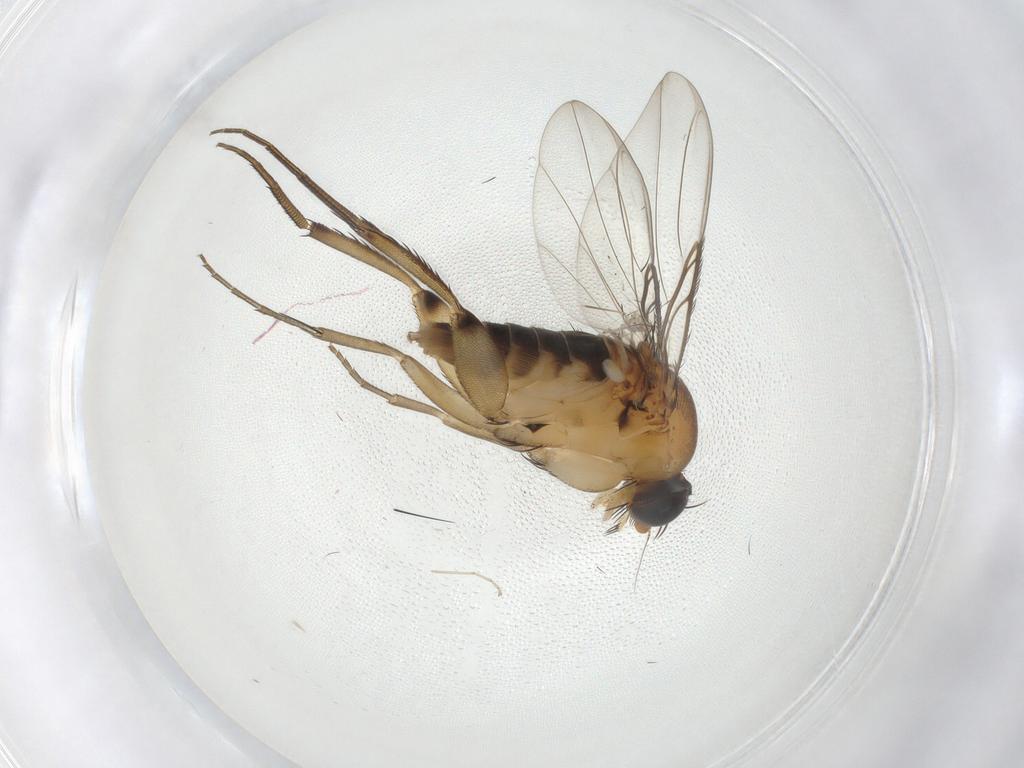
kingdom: Animalia
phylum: Arthropoda
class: Insecta
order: Diptera
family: Phoridae
